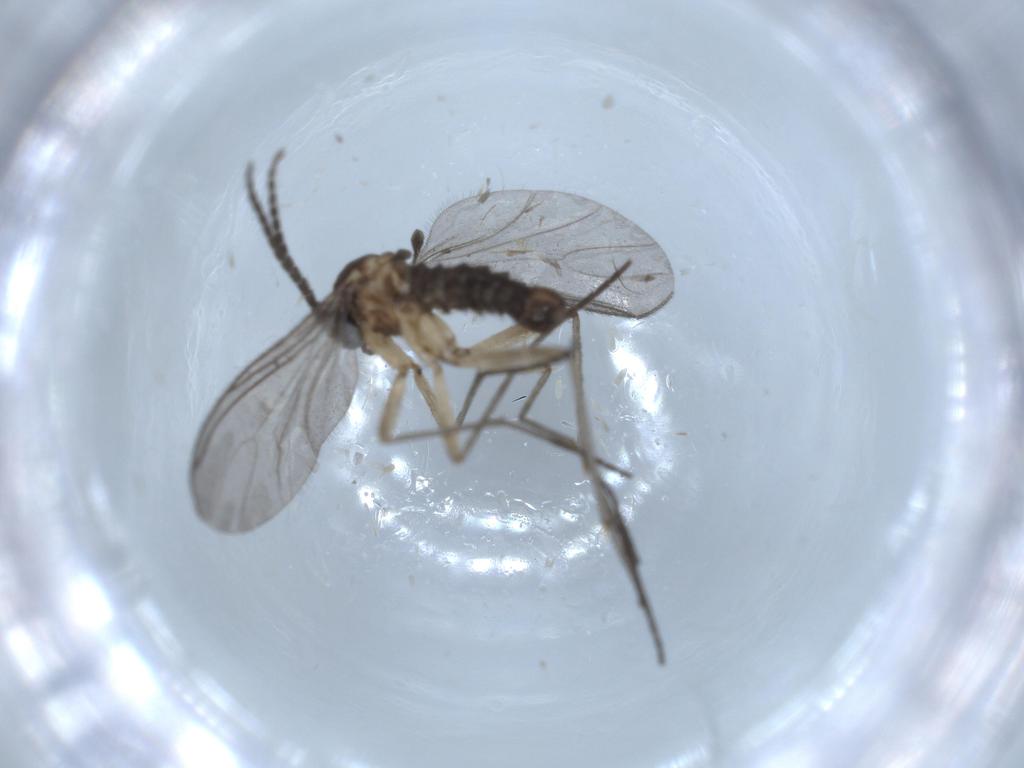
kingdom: Animalia
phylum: Arthropoda
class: Insecta
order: Diptera
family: Sciaridae
